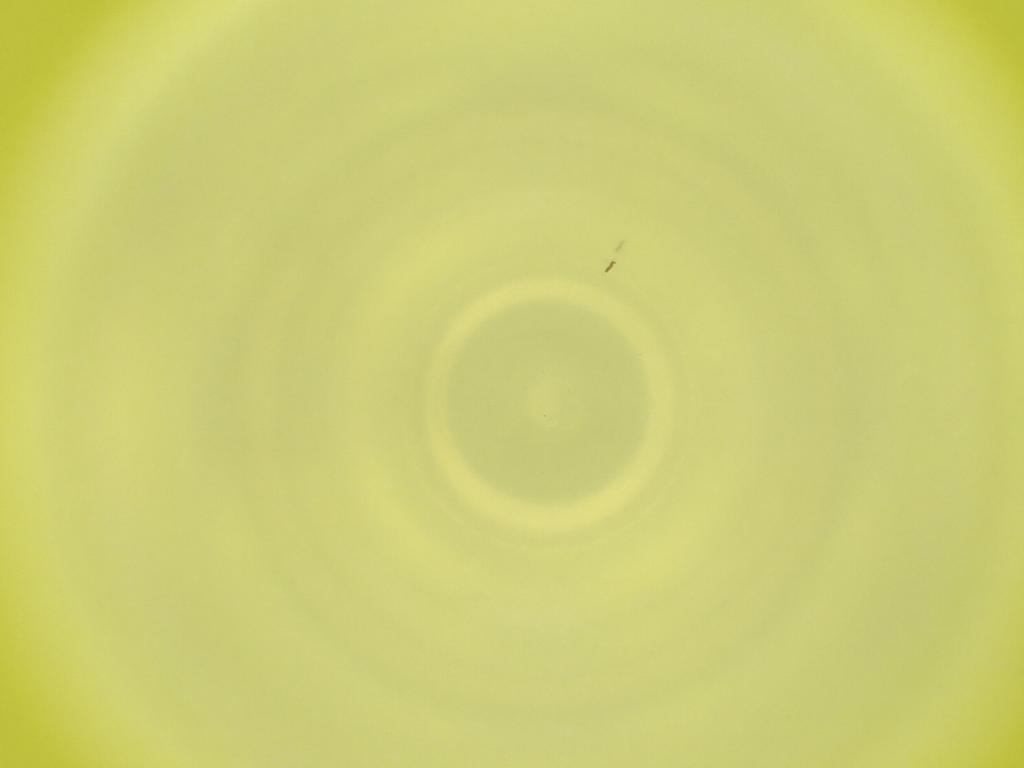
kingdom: Animalia
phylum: Arthropoda
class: Insecta
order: Diptera
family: Cecidomyiidae
